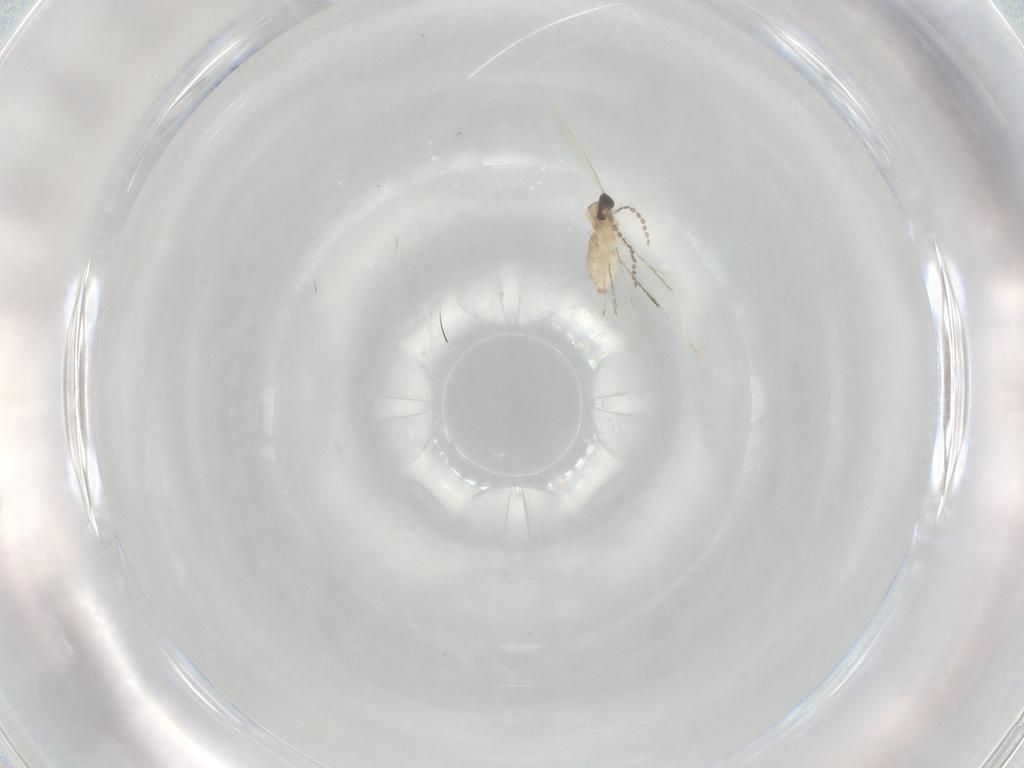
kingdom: Animalia
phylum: Arthropoda
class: Insecta
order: Diptera
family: Cecidomyiidae
